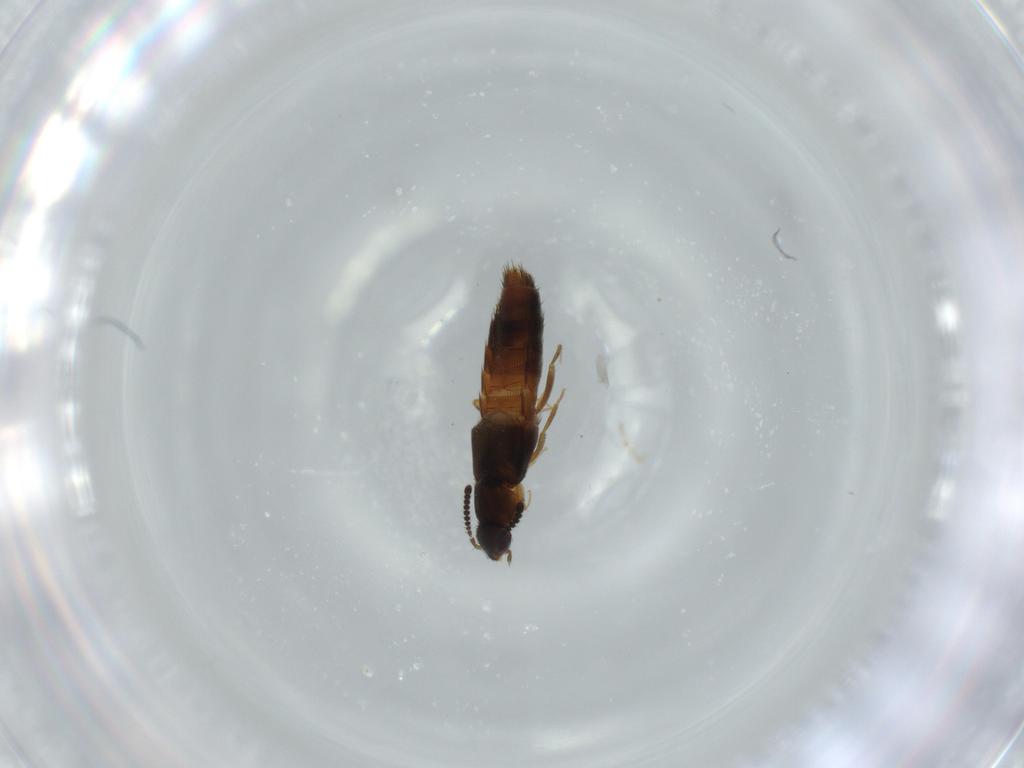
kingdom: Animalia
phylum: Arthropoda
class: Insecta
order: Coleoptera
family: Staphylinidae
